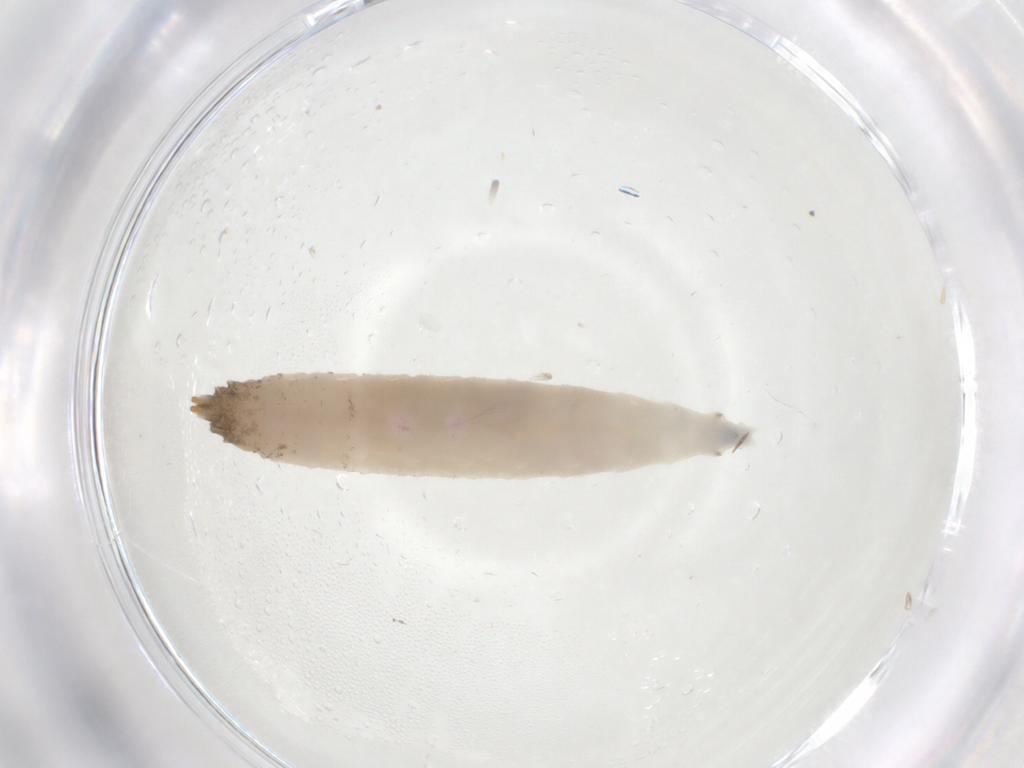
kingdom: Animalia
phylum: Arthropoda
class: Insecta
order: Diptera
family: Drosophilidae
